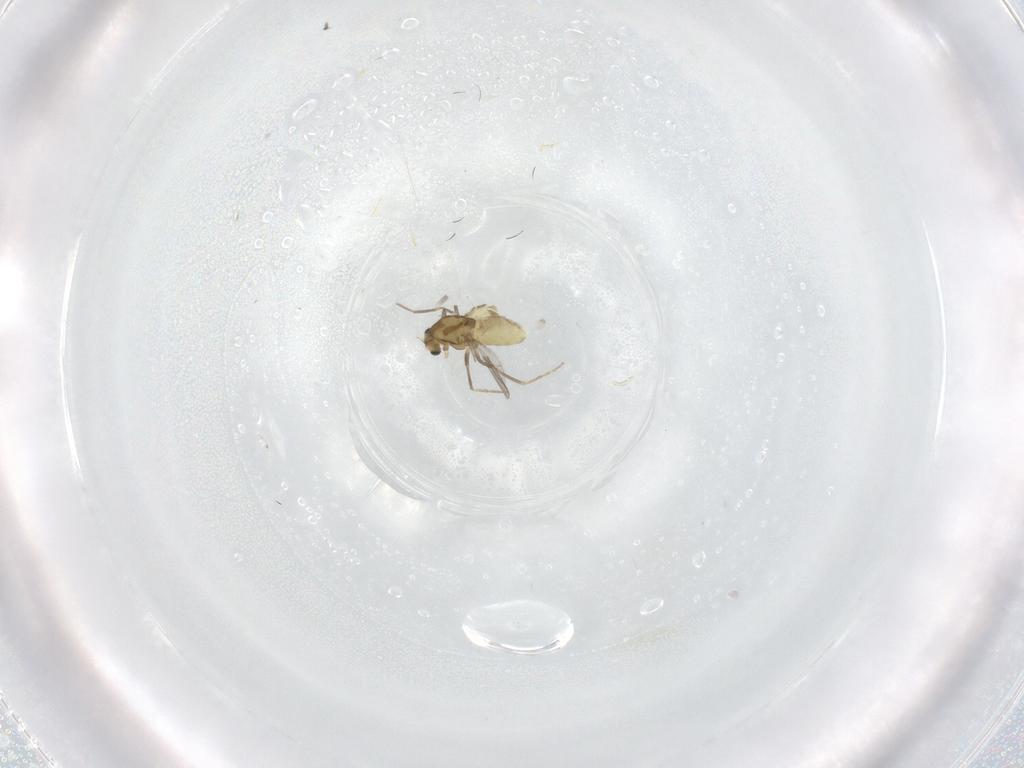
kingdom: Animalia
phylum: Arthropoda
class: Insecta
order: Diptera
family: Chironomidae
